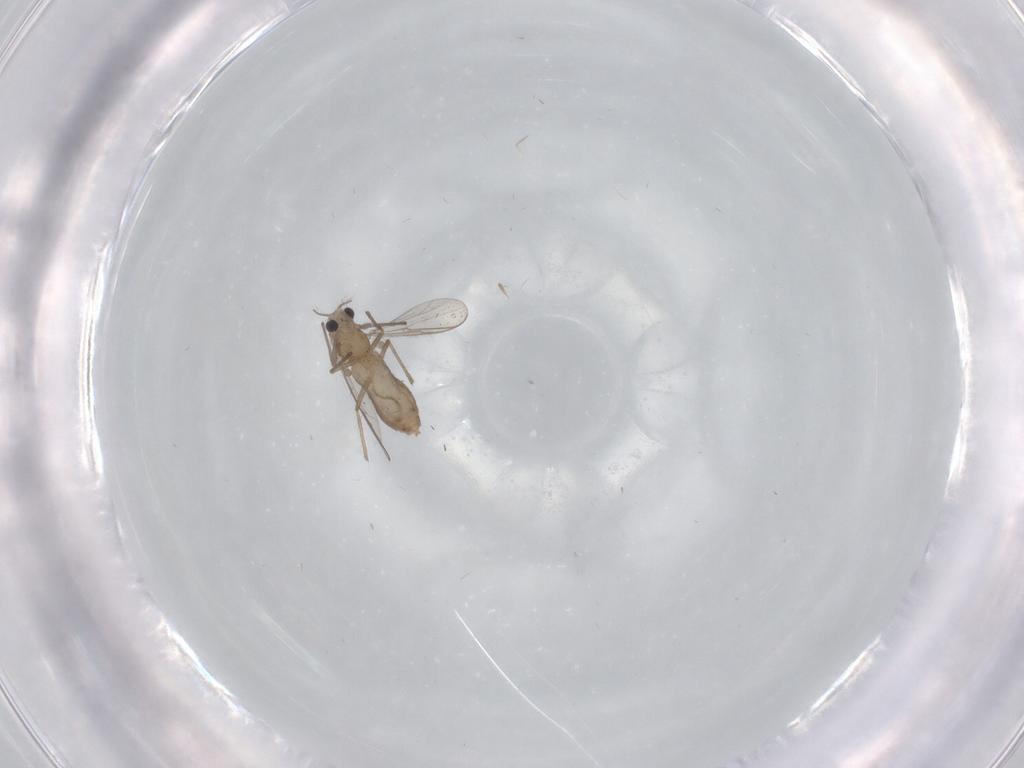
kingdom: Animalia
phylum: Arthropoda
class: Insecta
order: Diptera
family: Chironomidae
